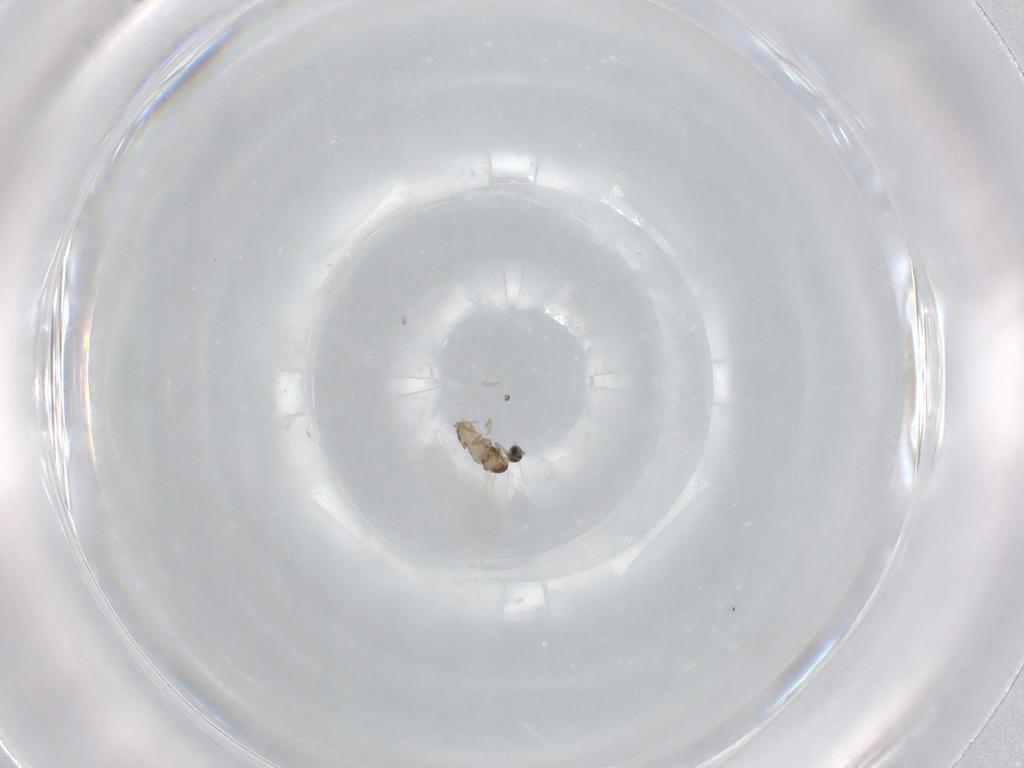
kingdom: Animalia
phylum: Arthropoda
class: Insecta
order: Diptera
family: Cecidomyiidae
